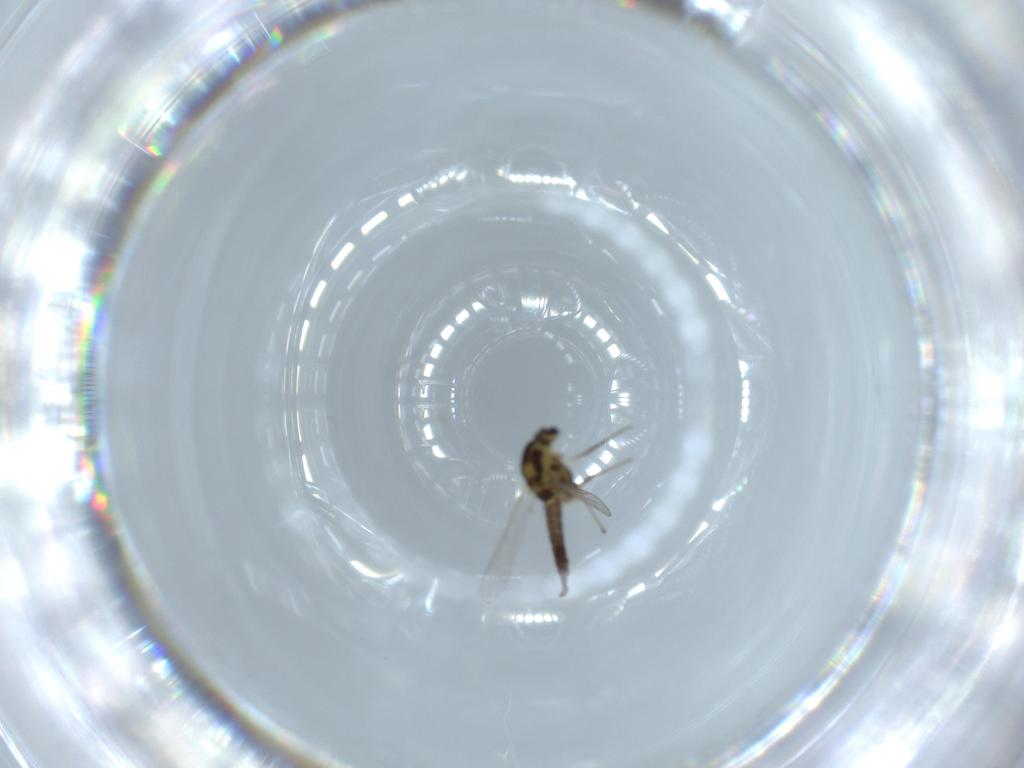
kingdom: Animalia
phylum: Arthropoda
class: Insecta
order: Diptera
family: Chironomidae
